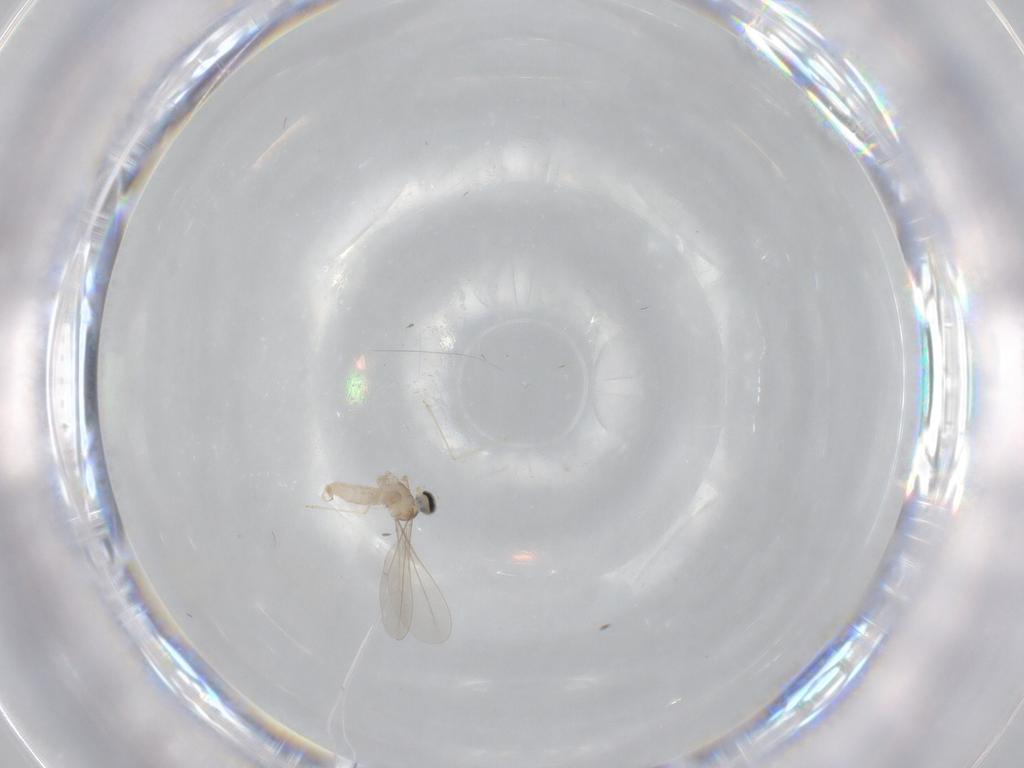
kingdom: Animalia
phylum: Arthropoda
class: Insecta
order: Diptera
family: Cecidomyiidae
